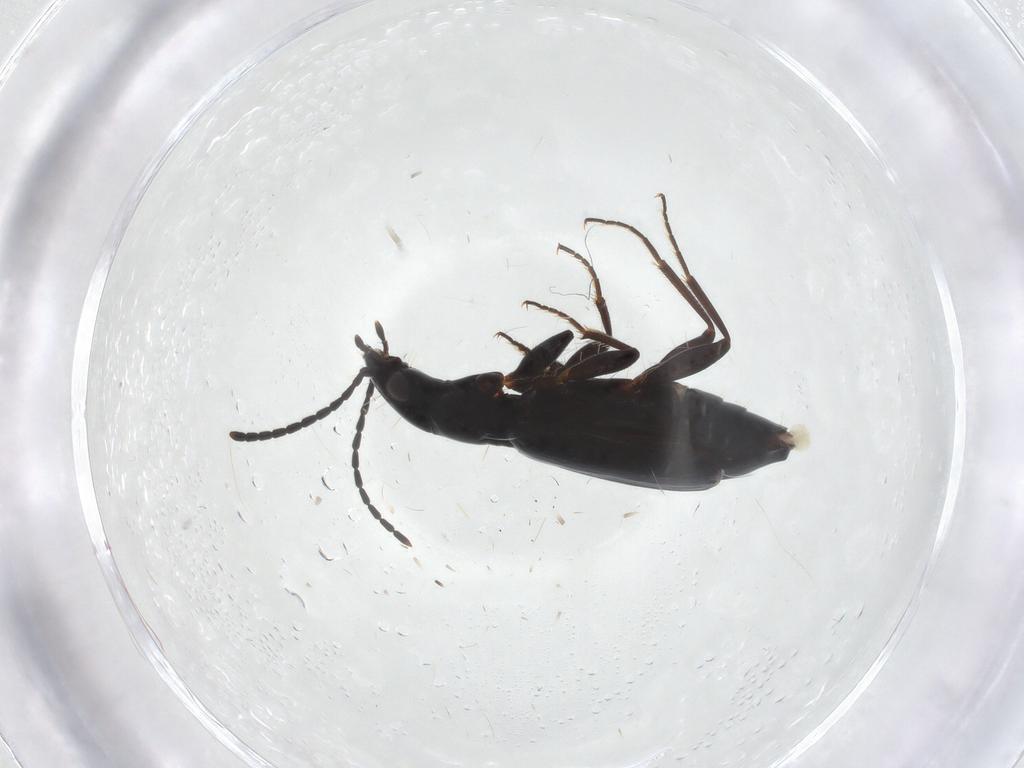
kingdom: Animalia
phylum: Arthropoda
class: Insecta
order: Coleoptera
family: Carabidae
